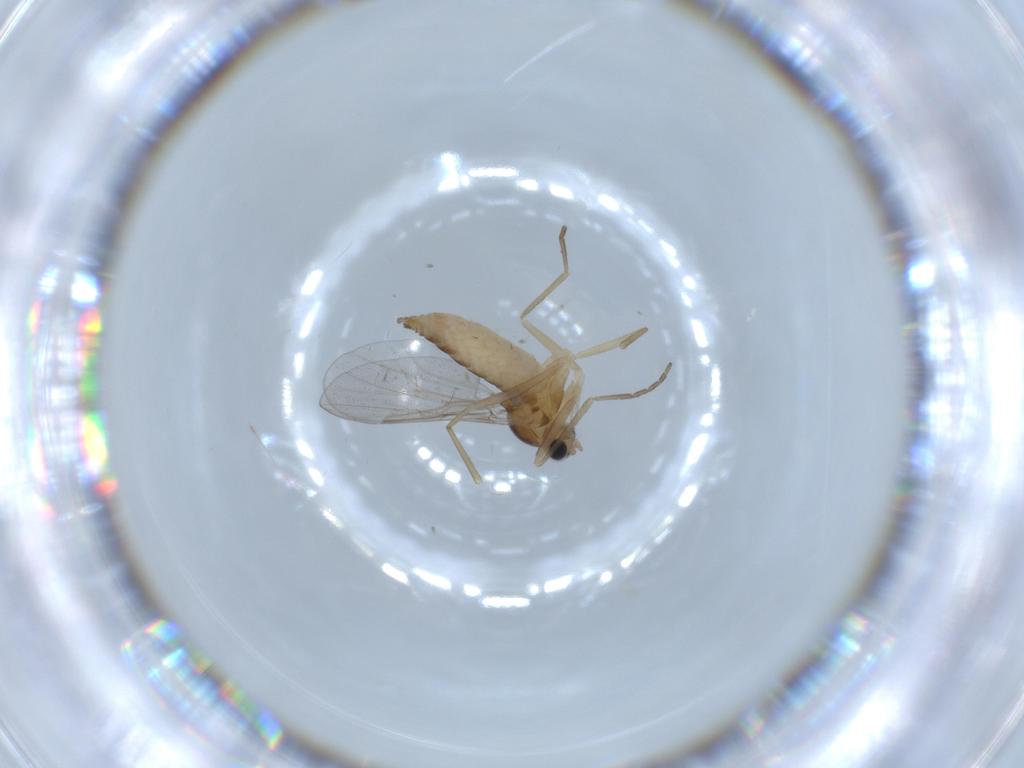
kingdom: Animalia
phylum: Arthropoda
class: Insecta
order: Diptera
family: Cecidomyiidae
